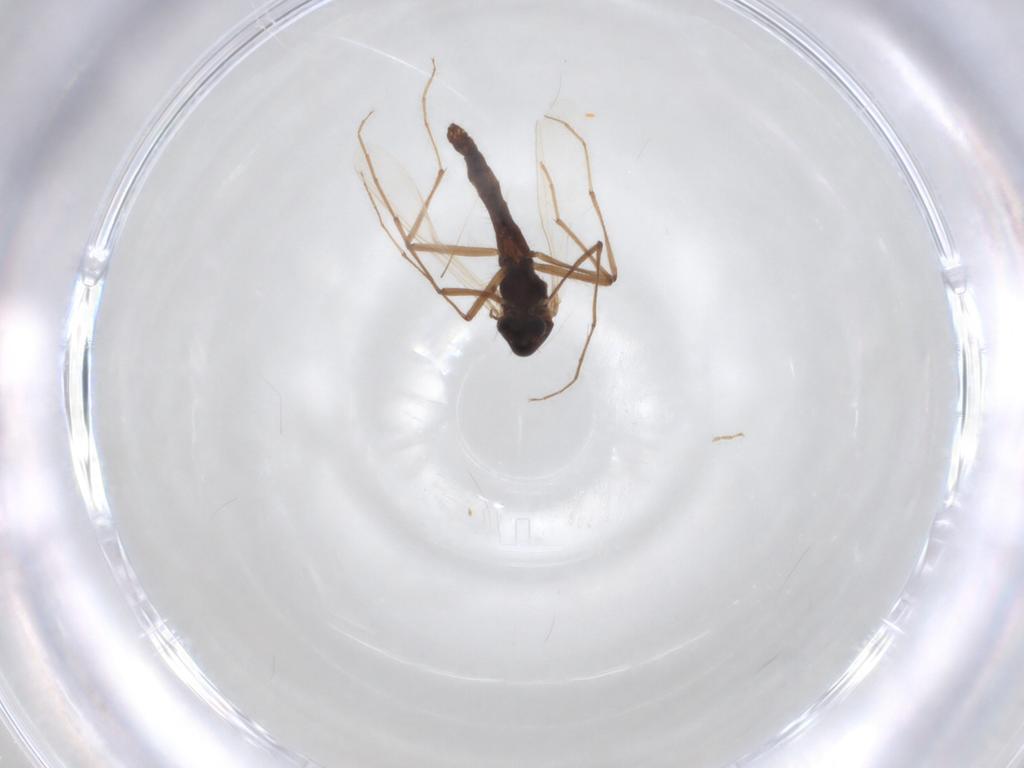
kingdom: Animalia
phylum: Arthropoda
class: Insecta
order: Diptera
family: Chironomidae
